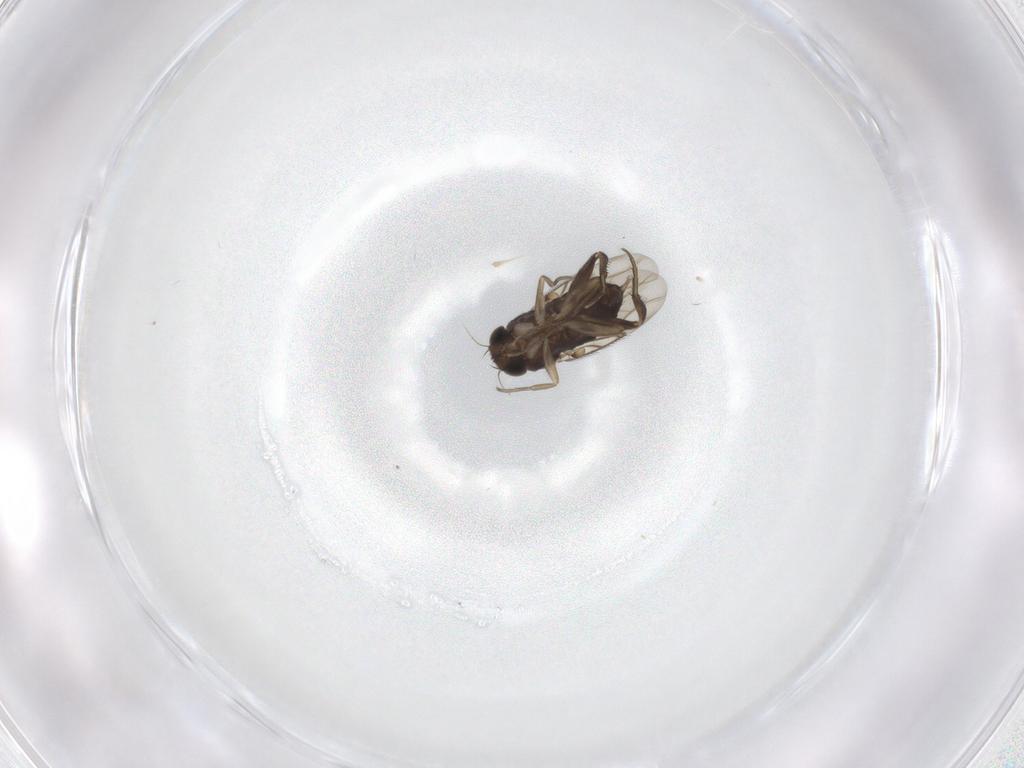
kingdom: Animalia
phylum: Arthropoda
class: Insecta
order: Diptera
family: Phoridae
